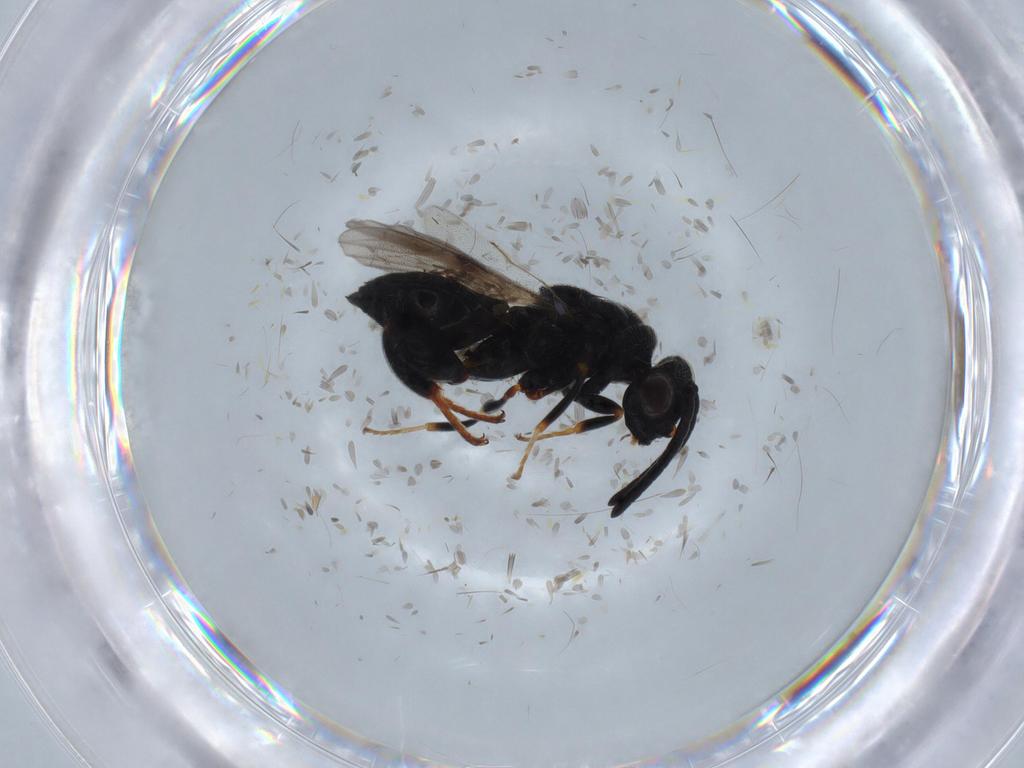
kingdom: Animalia
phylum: Arthropoda
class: Insecta
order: Hymenoptera
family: Chalcididae
